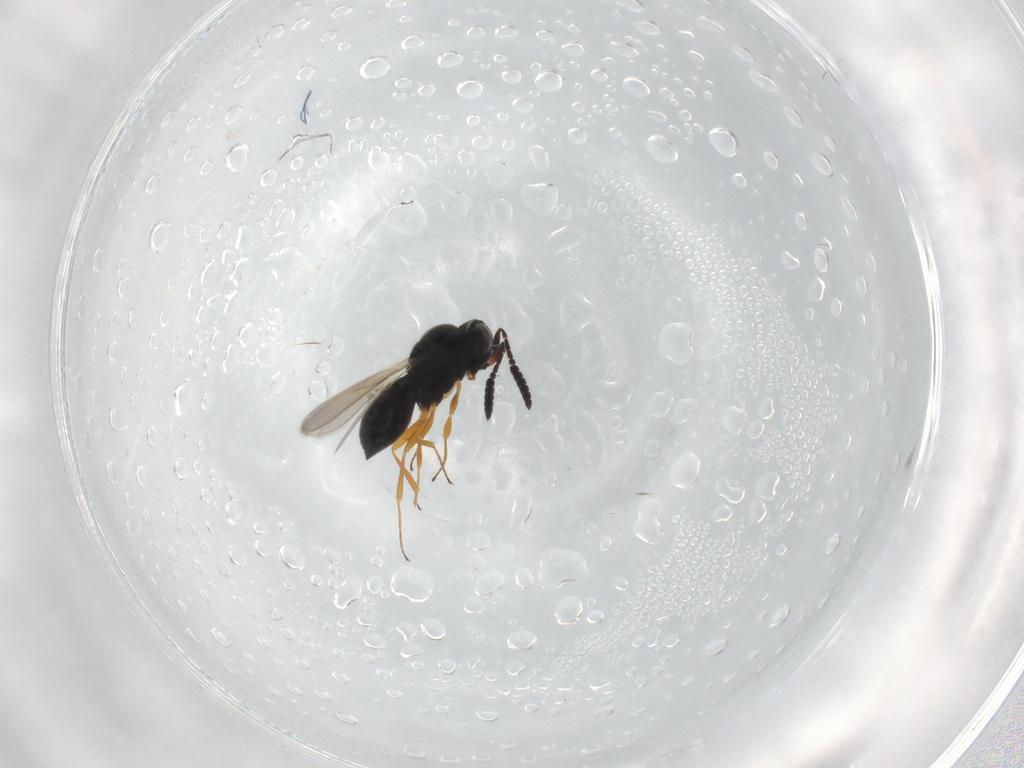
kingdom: Animalia
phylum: Arthropoda
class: Insecta
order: Hymenoptera
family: Scelionidae
